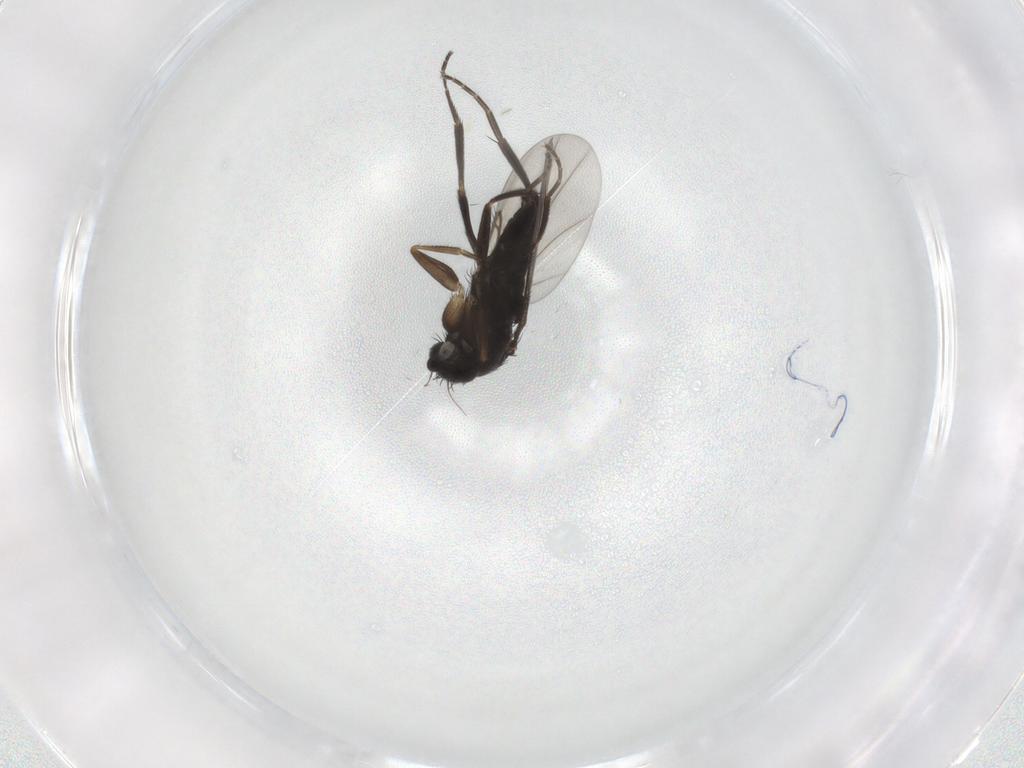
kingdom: Animalia
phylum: Arthropoda
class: Insecta
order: Diptera
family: Phoridae
